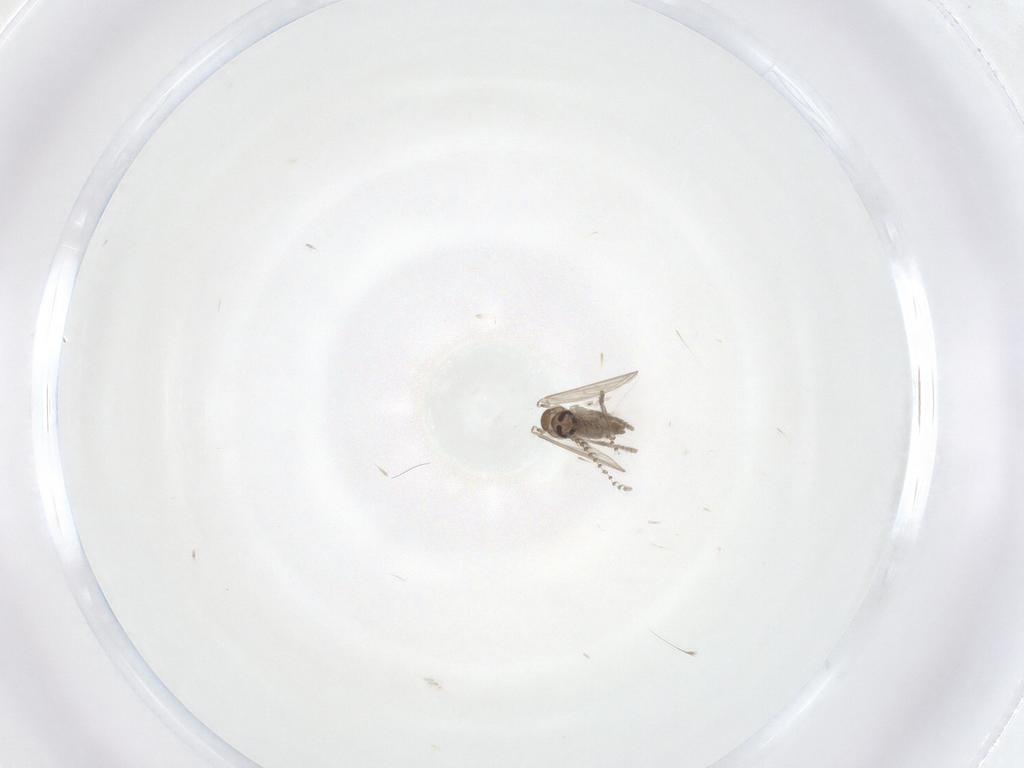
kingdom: Animalia
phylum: Arthropoda
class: Insecta
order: Diptera
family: Psychodidae
